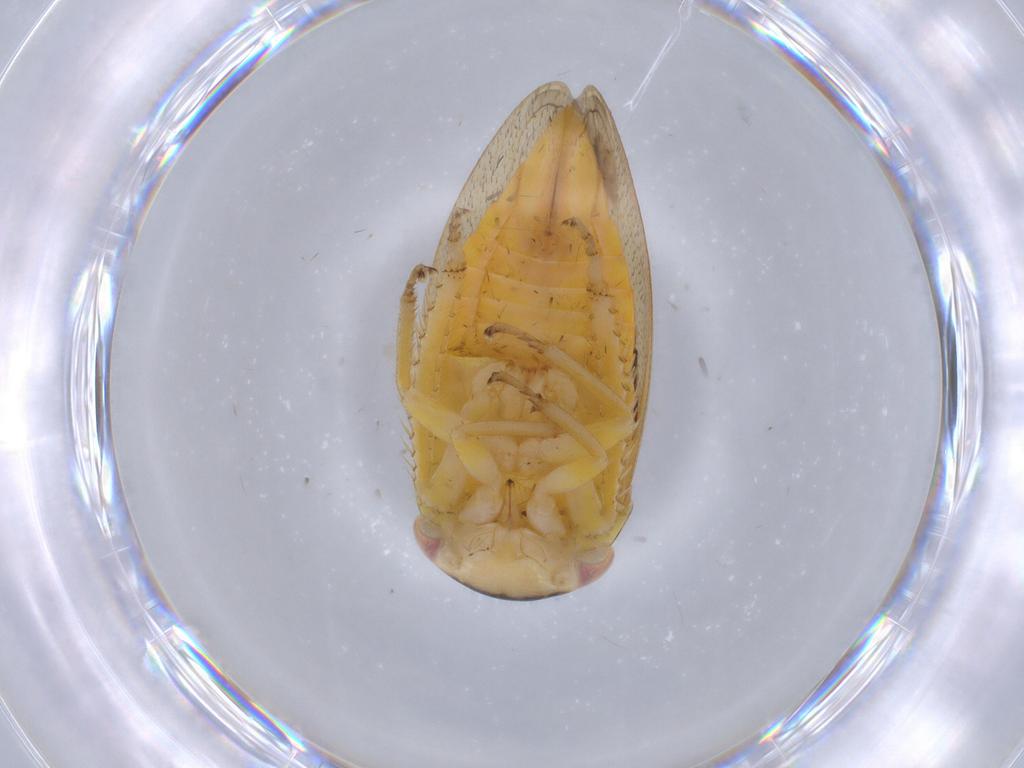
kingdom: Animalia
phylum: Arthropoda
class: Insecta
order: Hemiptera
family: Cicadellidae
